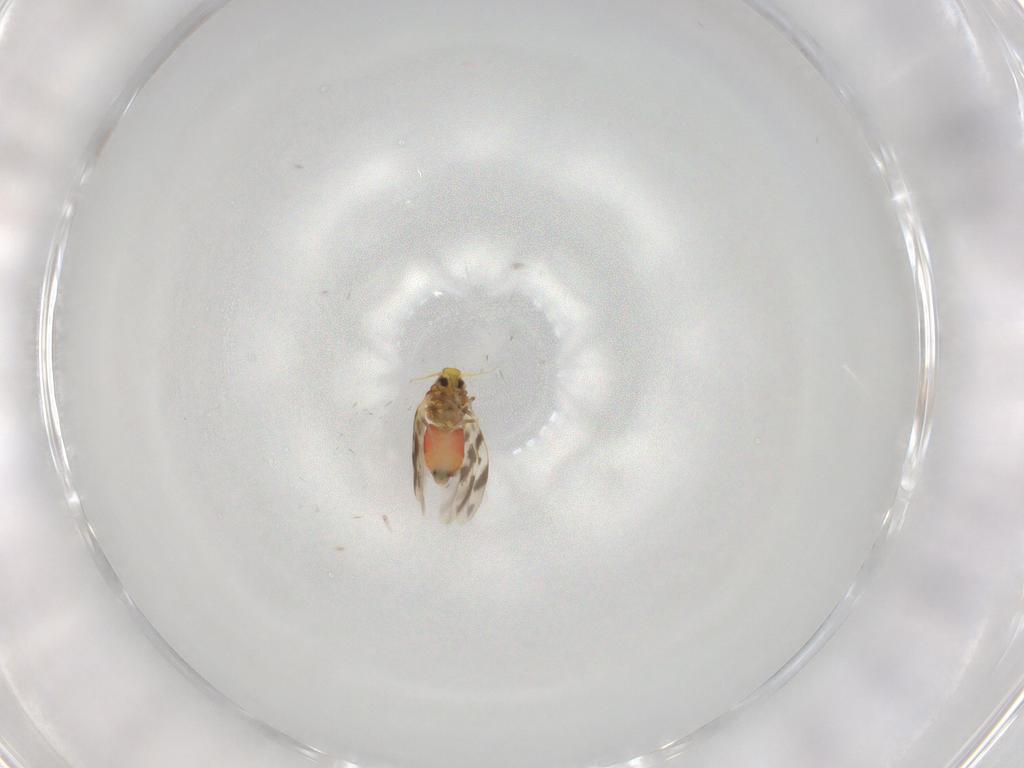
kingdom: Animalia
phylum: Arthropoda
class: Insecta
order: Hemiptera
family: Aleyrodidae
